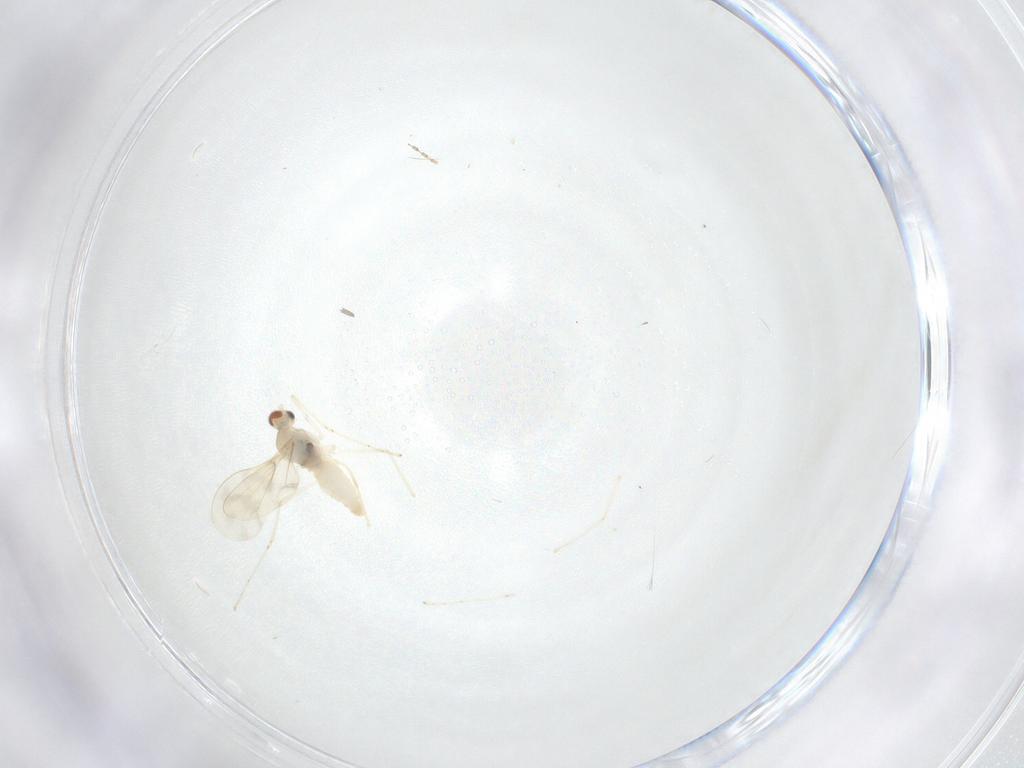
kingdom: Animalia
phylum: Arthropoda
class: Insecta
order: Diptera
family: Cecidomyiidae
